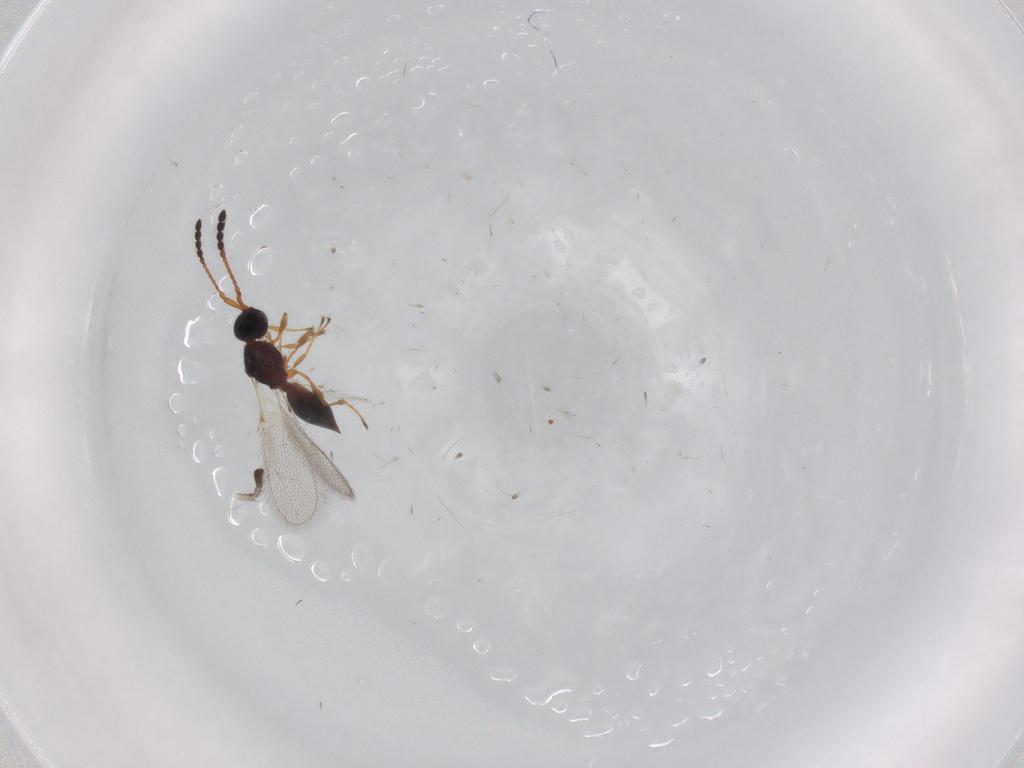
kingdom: Animalia
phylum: Arthropoda
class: Insecta
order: Hymenoptera
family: Diapriidae
